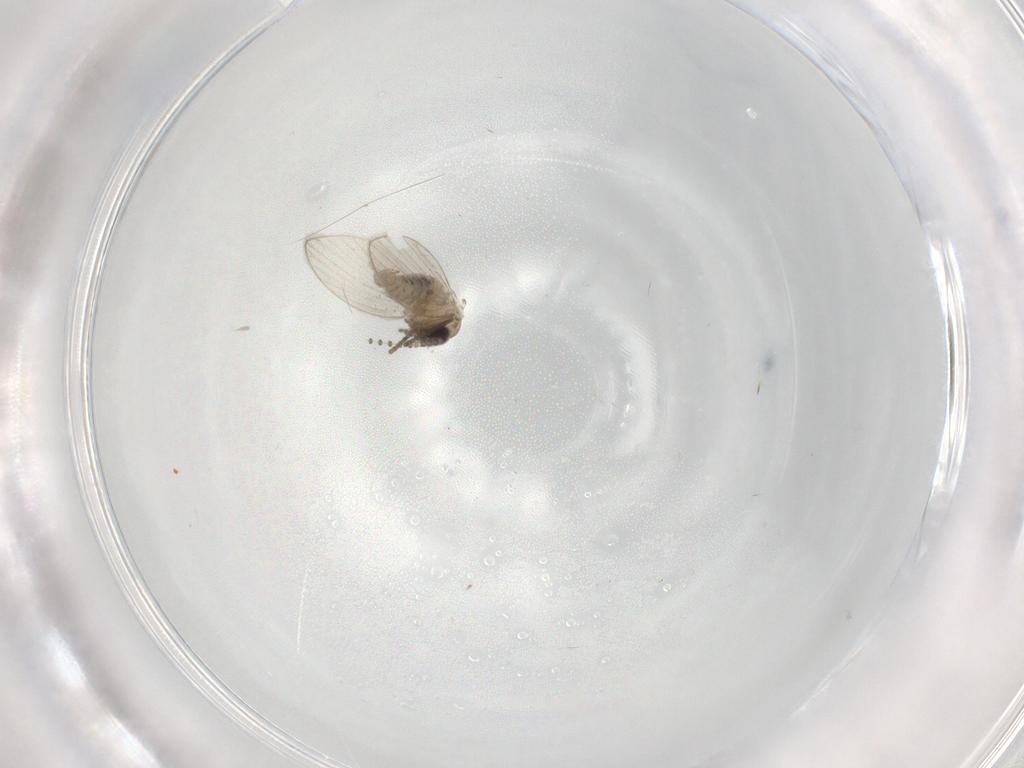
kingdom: Animalia
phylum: Arthropoda
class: Insecta
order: Diptera
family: Psychodidae
